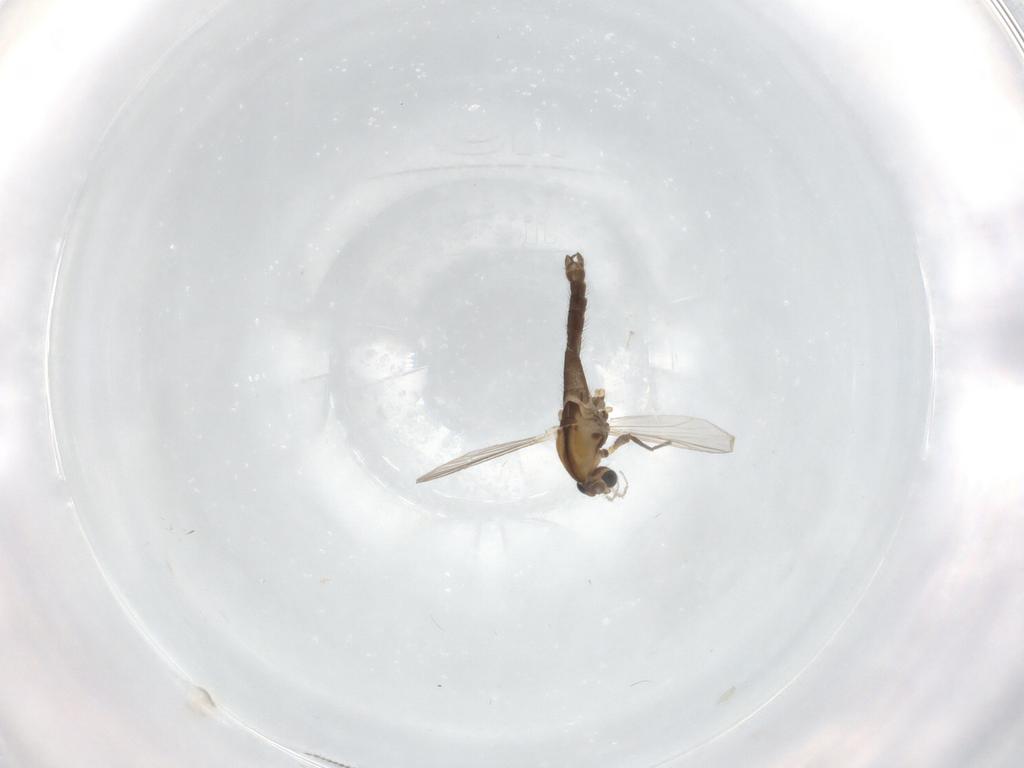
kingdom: Animalia
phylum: Arthropoda
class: Insecta
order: Diptera
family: Chironomidae
